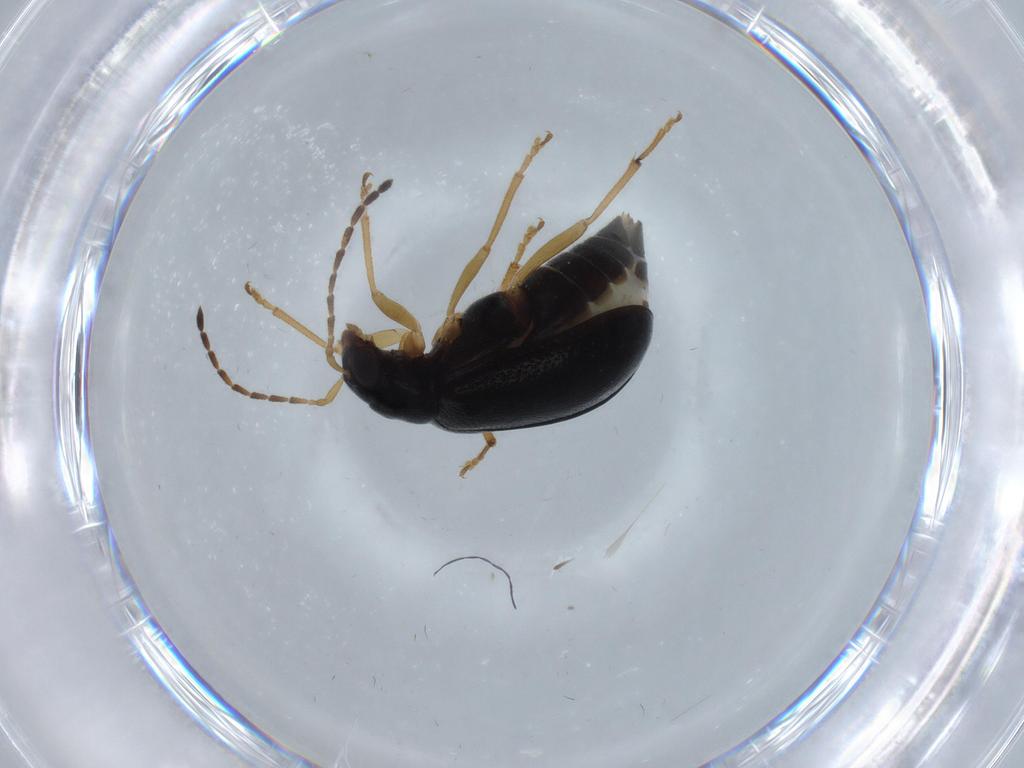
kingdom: Animalia
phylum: Arthropoda
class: Insecta
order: Coleoptera
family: Chrysomelidae
